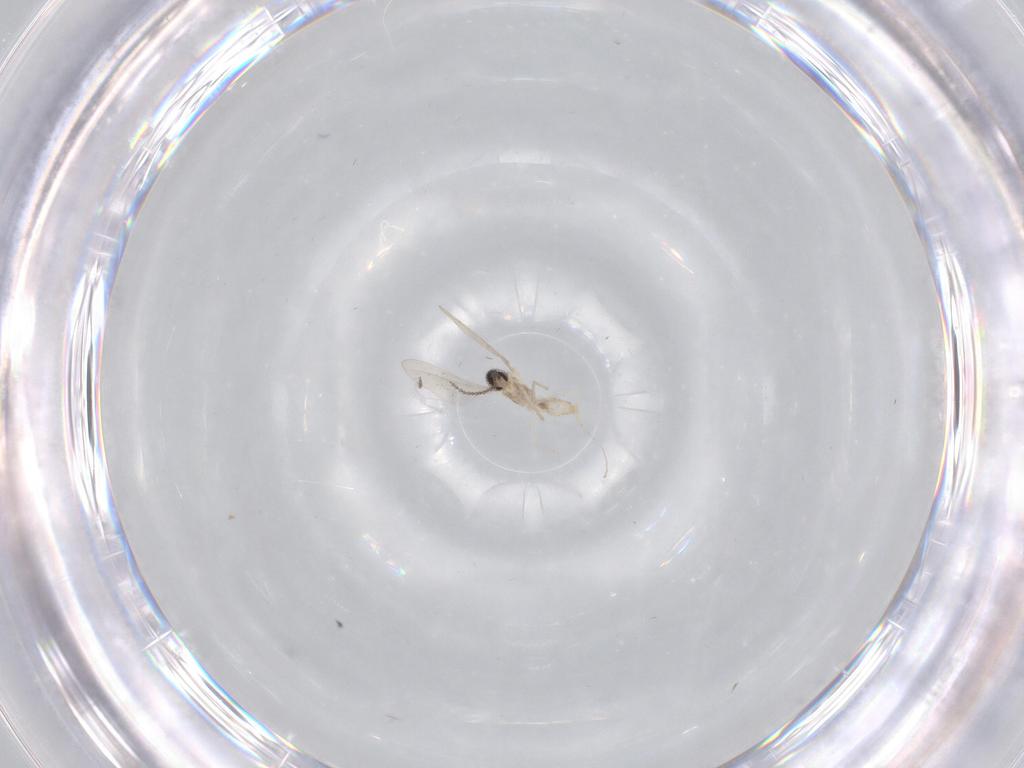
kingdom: Animalia
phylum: Arthropoda
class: Insecta
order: Diptera
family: Cecidomyiidae
